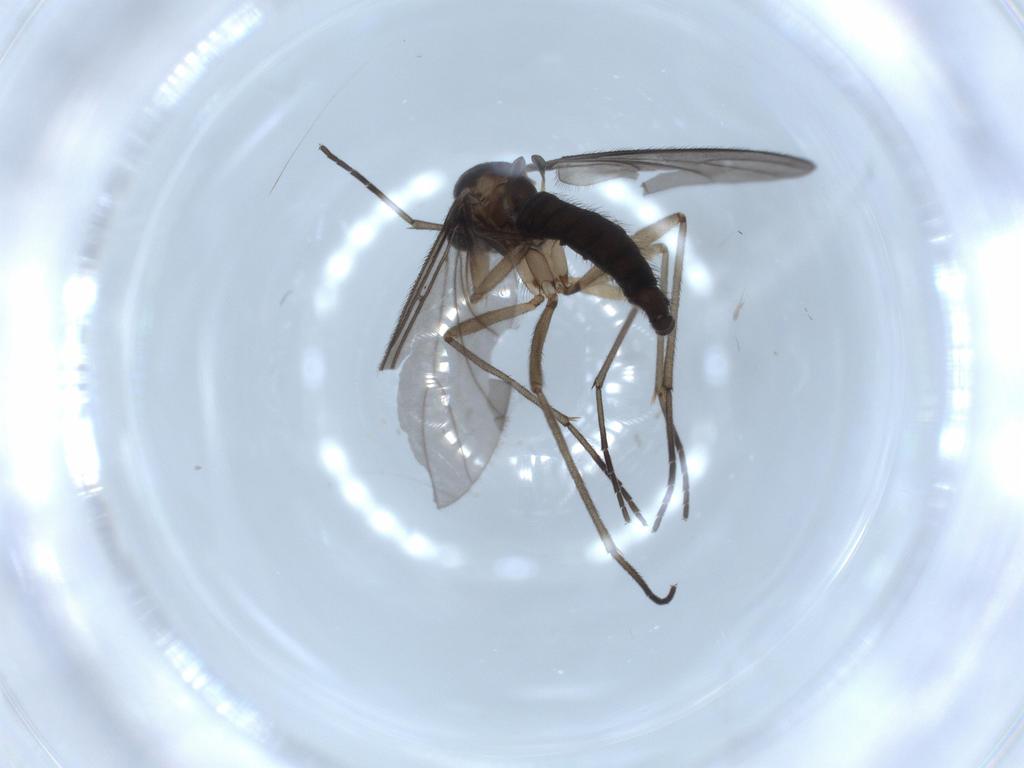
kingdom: Animalia
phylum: Arthropoda
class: Insecta
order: Diptera
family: Sciaridae
